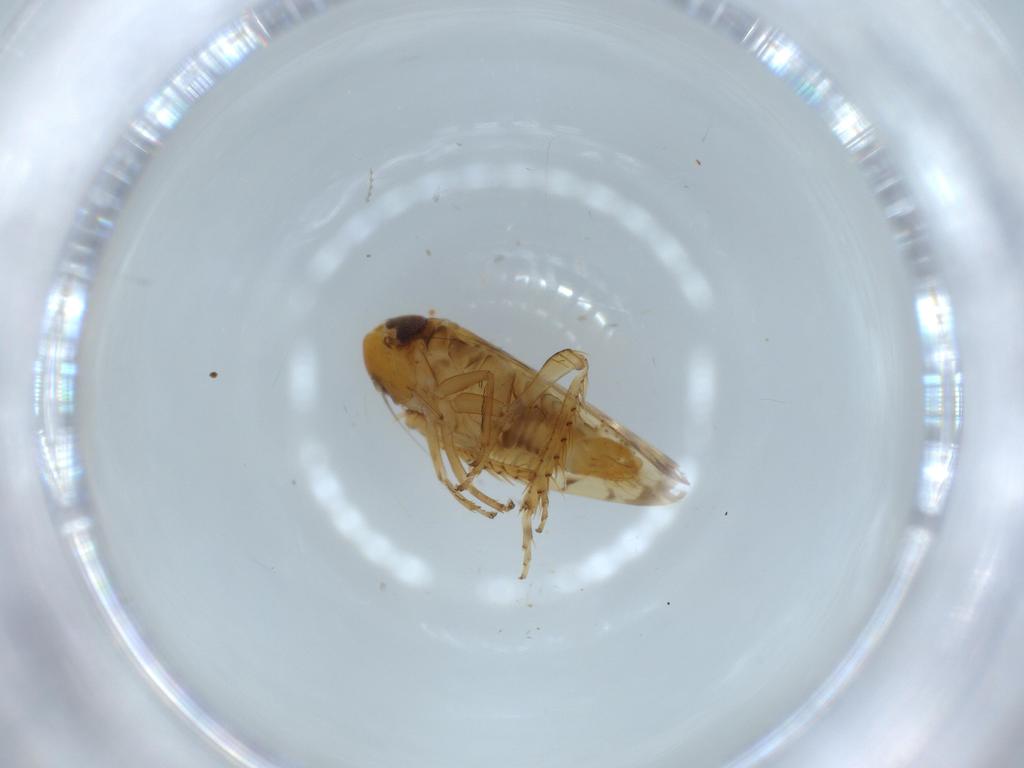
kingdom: Animalia
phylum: Arthropoda
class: Insecta
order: Hemiptera
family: Cicadellidae
